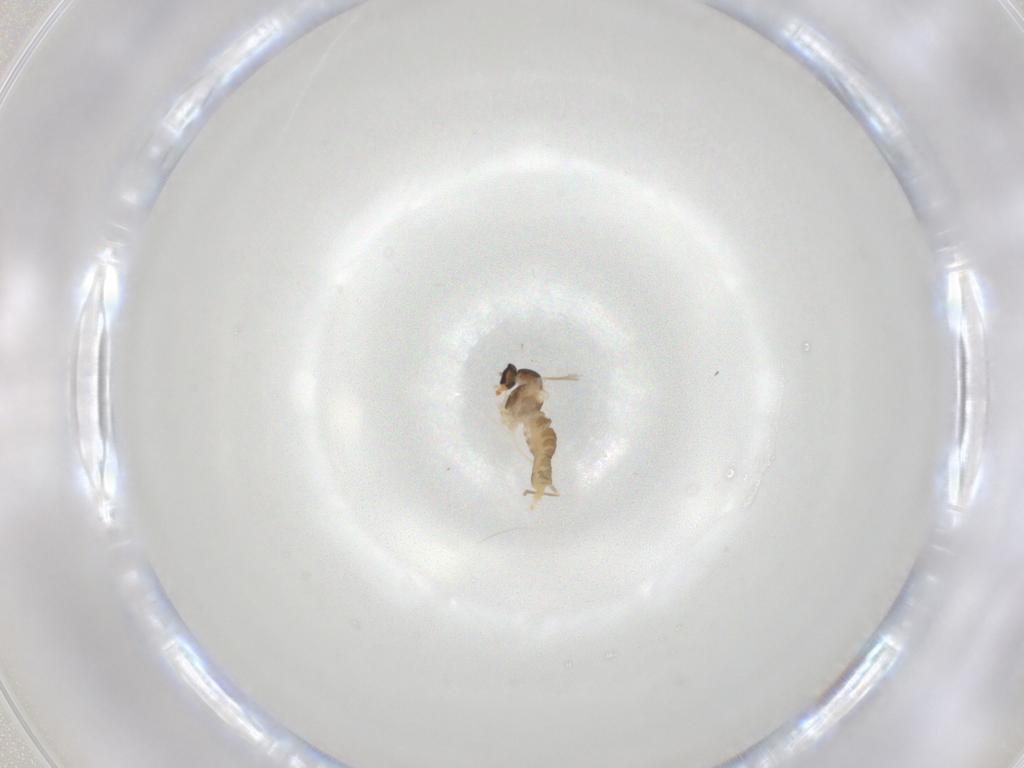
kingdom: Animalia
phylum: Arthropoda
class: Insecta
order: Diptera
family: Cecidomyiidae
